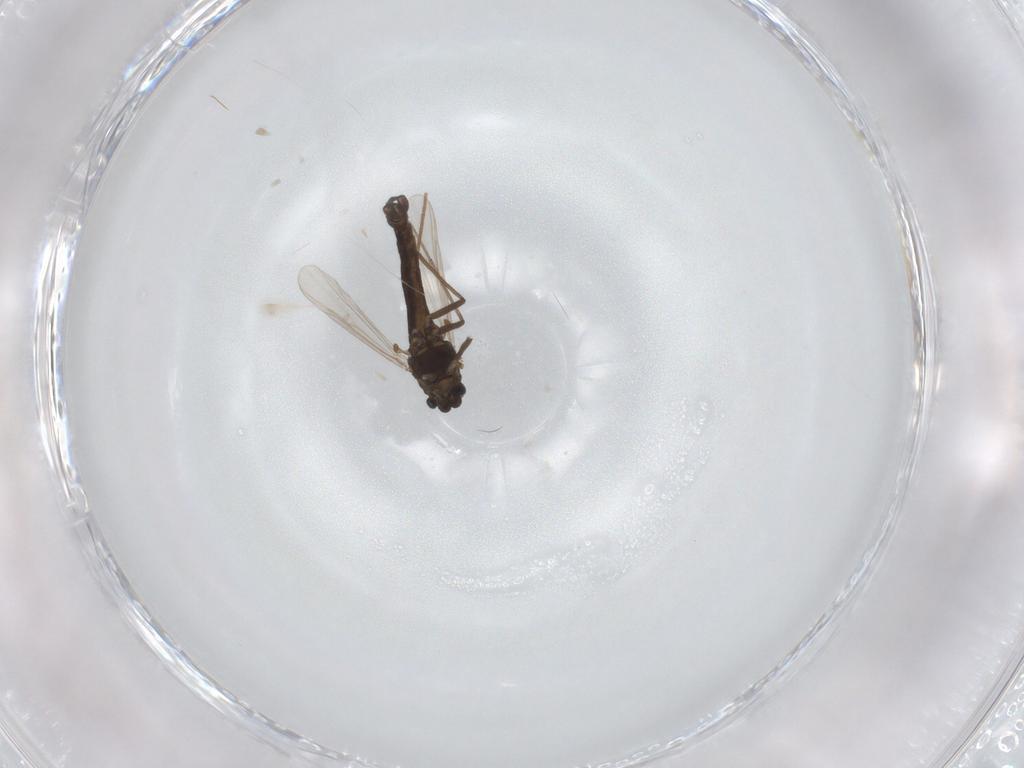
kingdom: Animalia
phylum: Arthropoda
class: Insecta
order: Diptera
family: Chironomidae
